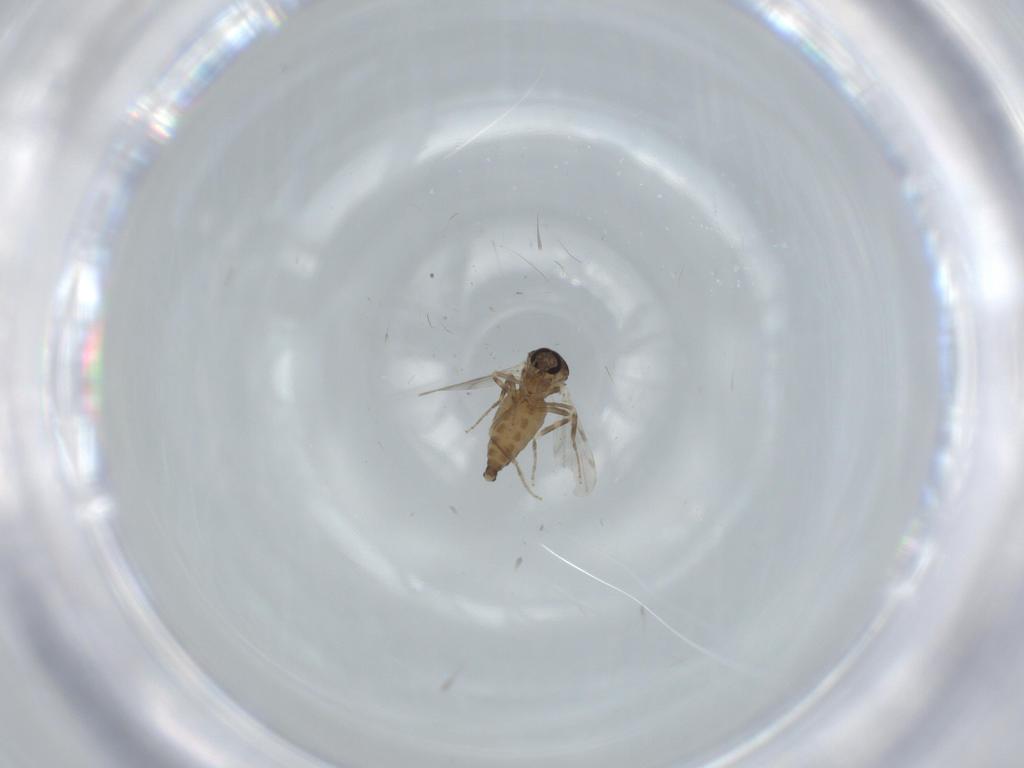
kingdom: Animalia
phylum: Arthropoda
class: Insecta
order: Diptera
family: Ceratopogonidae
